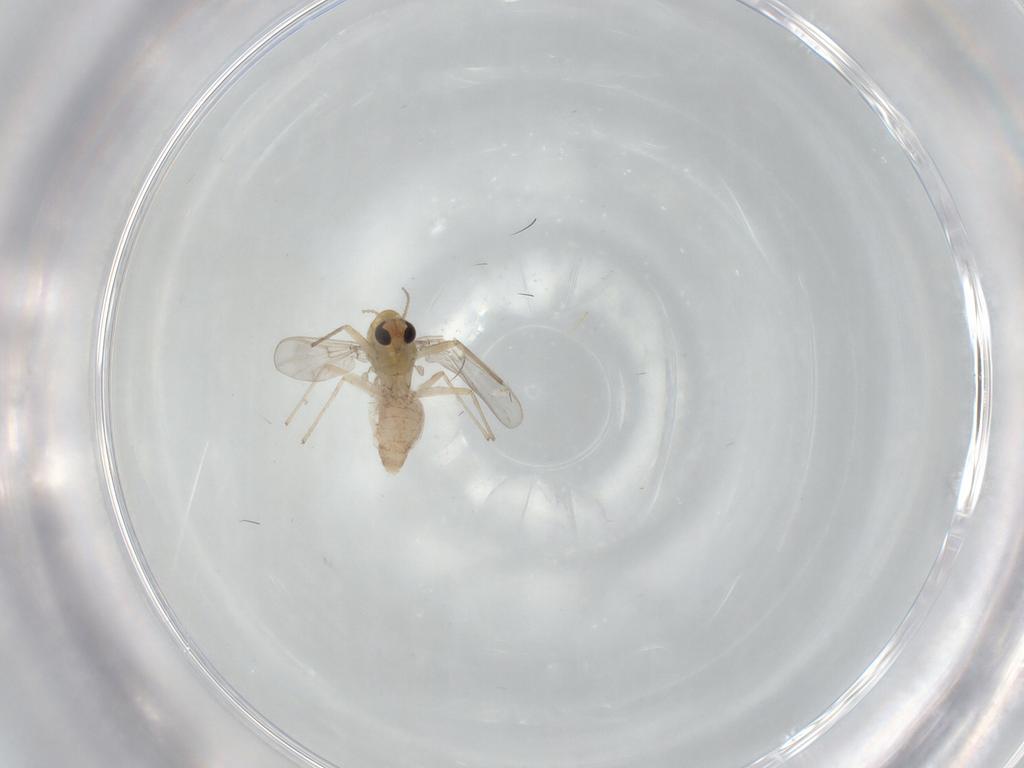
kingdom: Animalia
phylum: Arthropoda
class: Insecta
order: Diptera
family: Chironomidae
